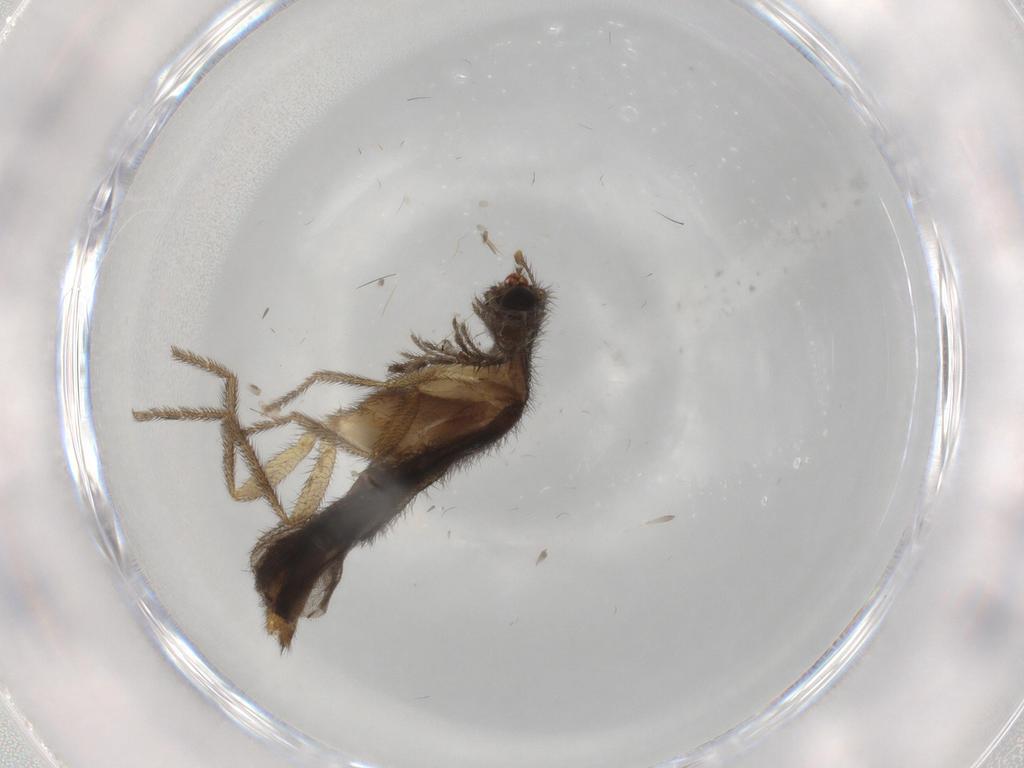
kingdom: Animalia
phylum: Arthropoda
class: Insecta
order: Coleoptera
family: Phengodidae
